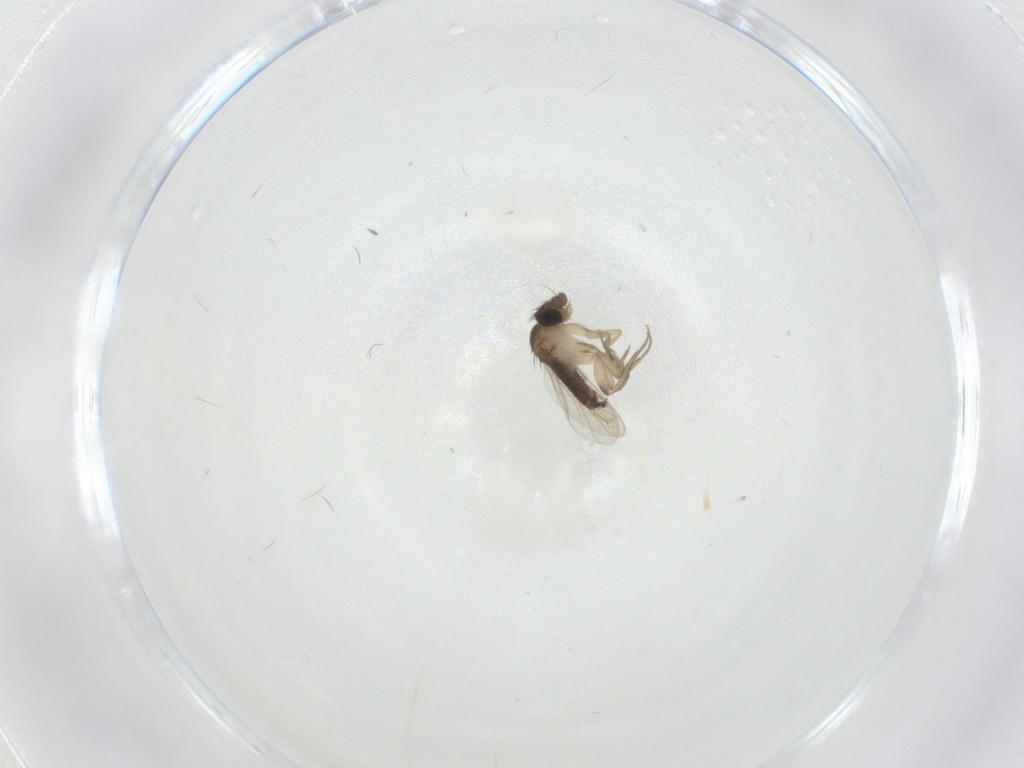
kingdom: Animalia
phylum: Arthropoda
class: Insecta
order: Diptera
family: Phoridae
